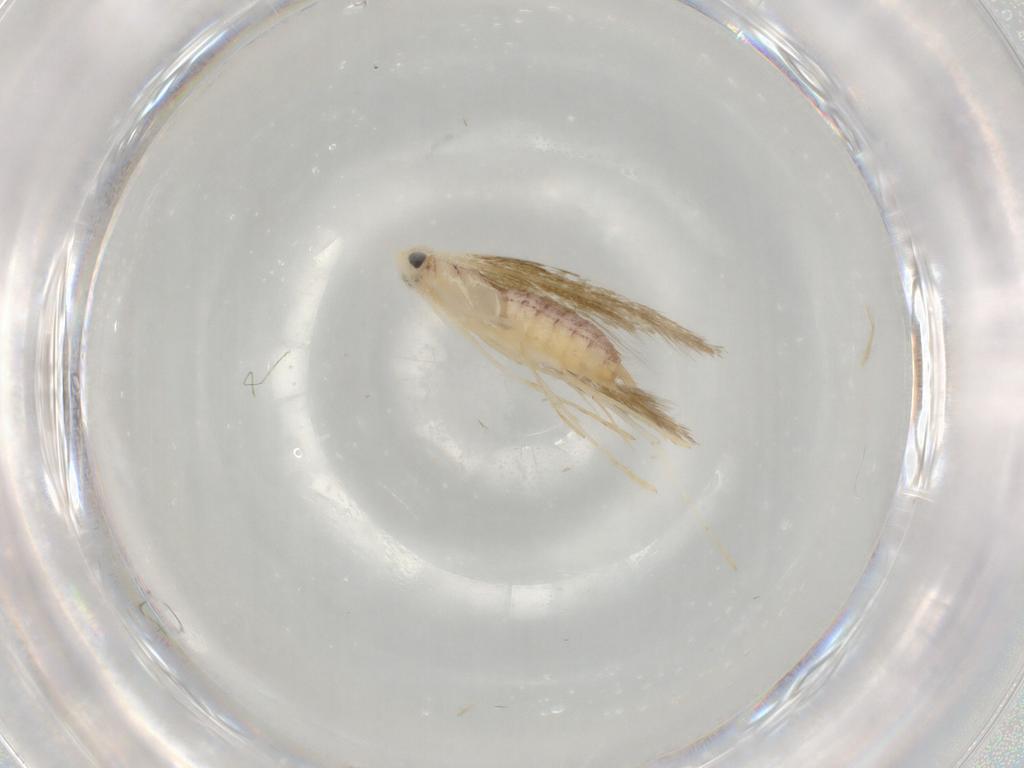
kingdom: Animalia
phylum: Arthropoda
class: Insecta
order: Lepidoptera
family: Lyonetiidae
